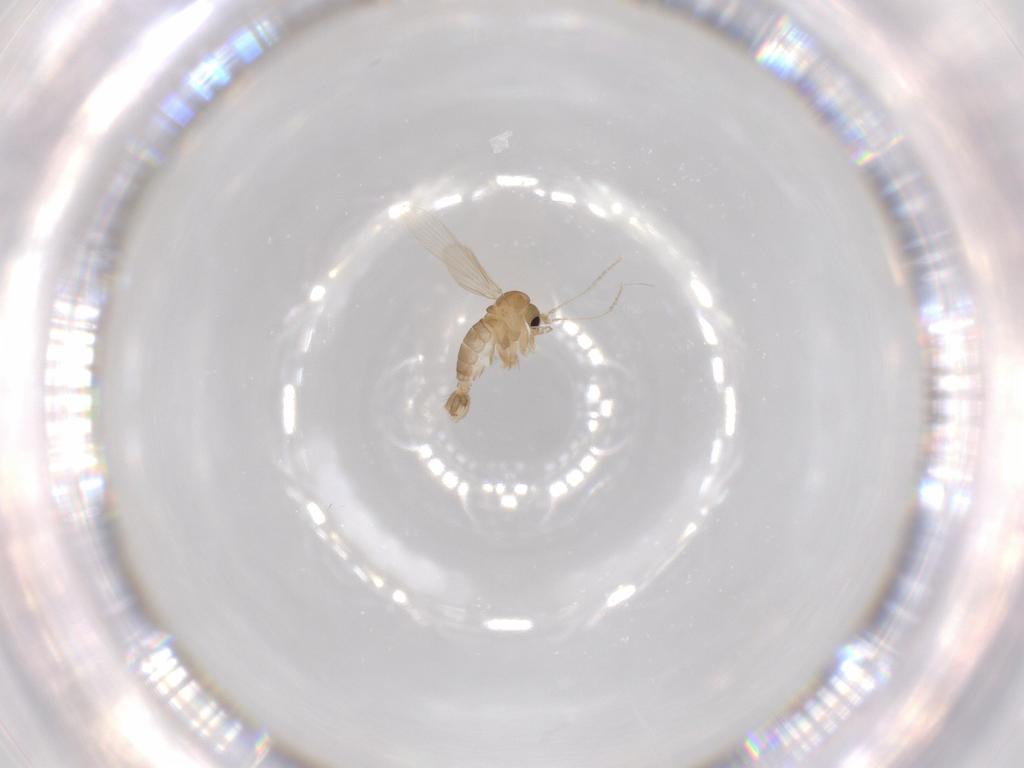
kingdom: Animalia
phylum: Arthropoda
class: Insecta
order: Diptera
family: Psychodidae
